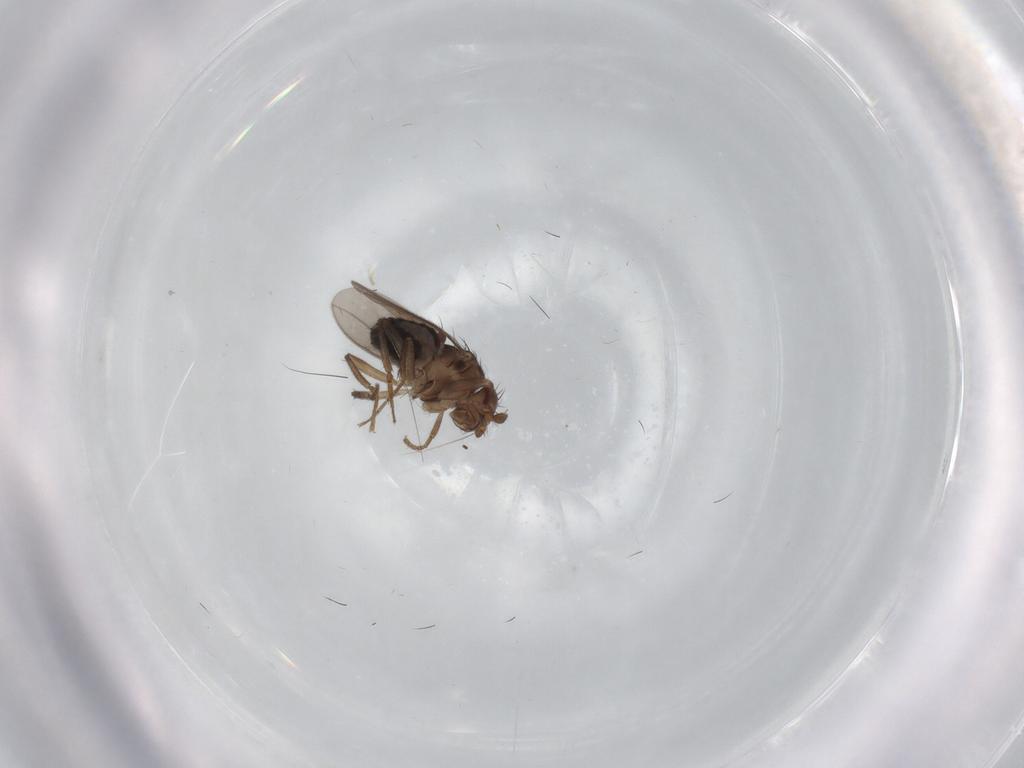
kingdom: Animalia
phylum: Arthropoda
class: Insecta
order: Diptera
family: Sphaeroceridae
